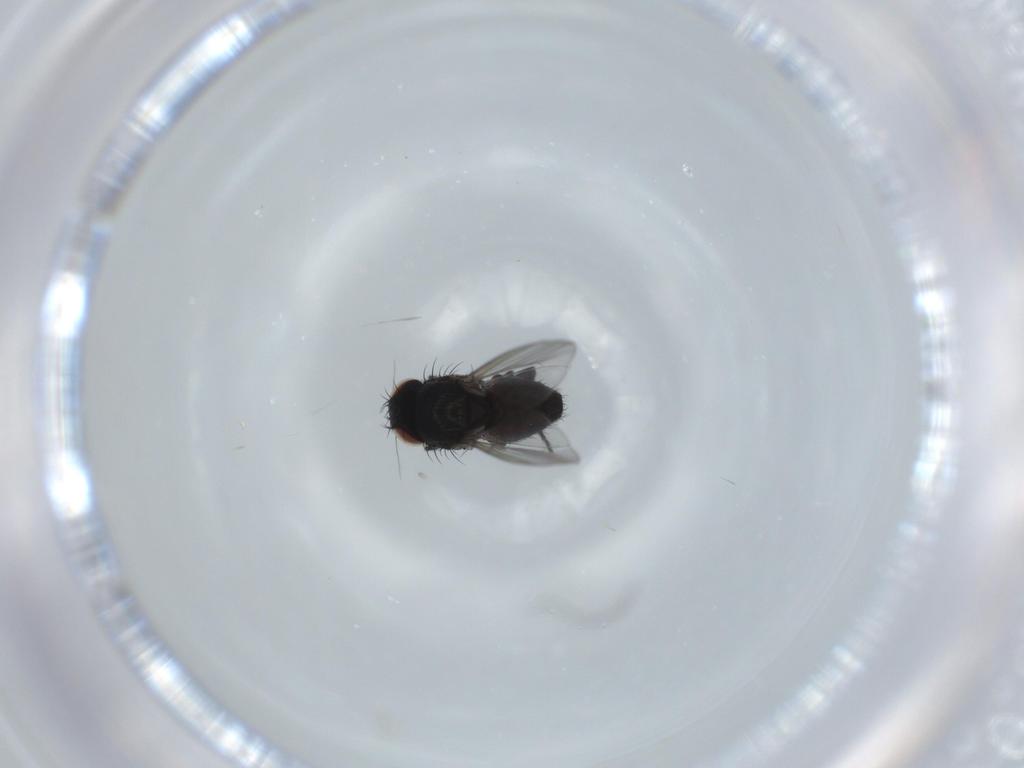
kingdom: Animalia
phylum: Arthropoda
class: Insecta
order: Diptera
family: Milichiidae
